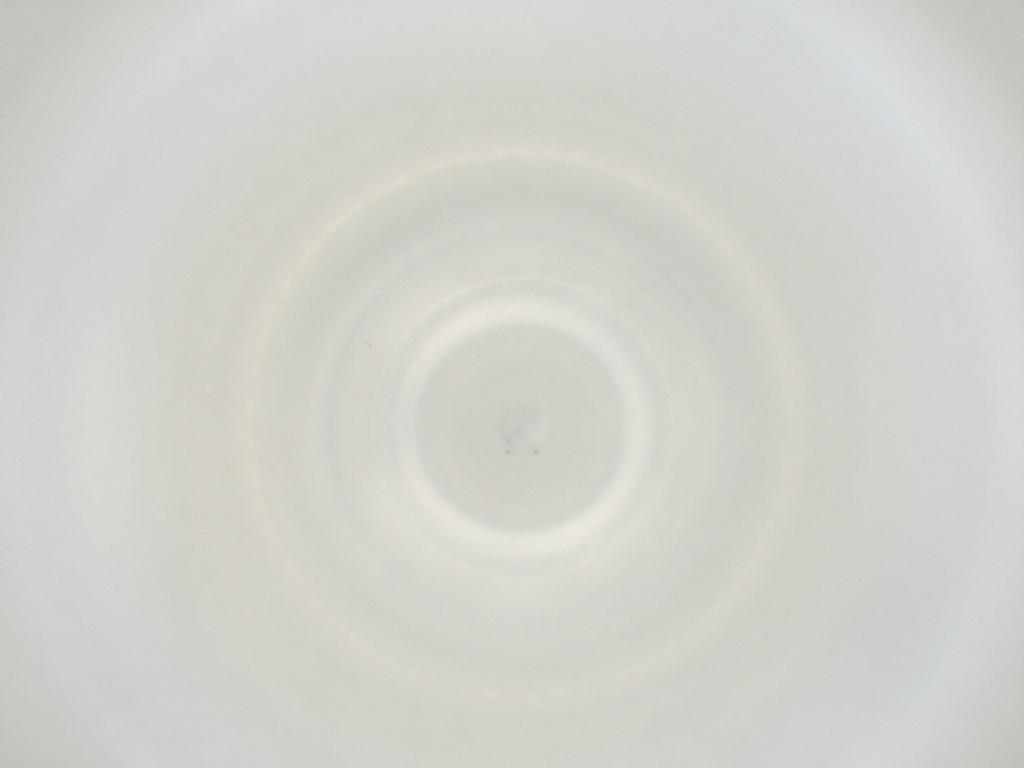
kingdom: Animalia
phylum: Arthropoda
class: Insecta
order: Diptera
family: Cecidomyiidae
